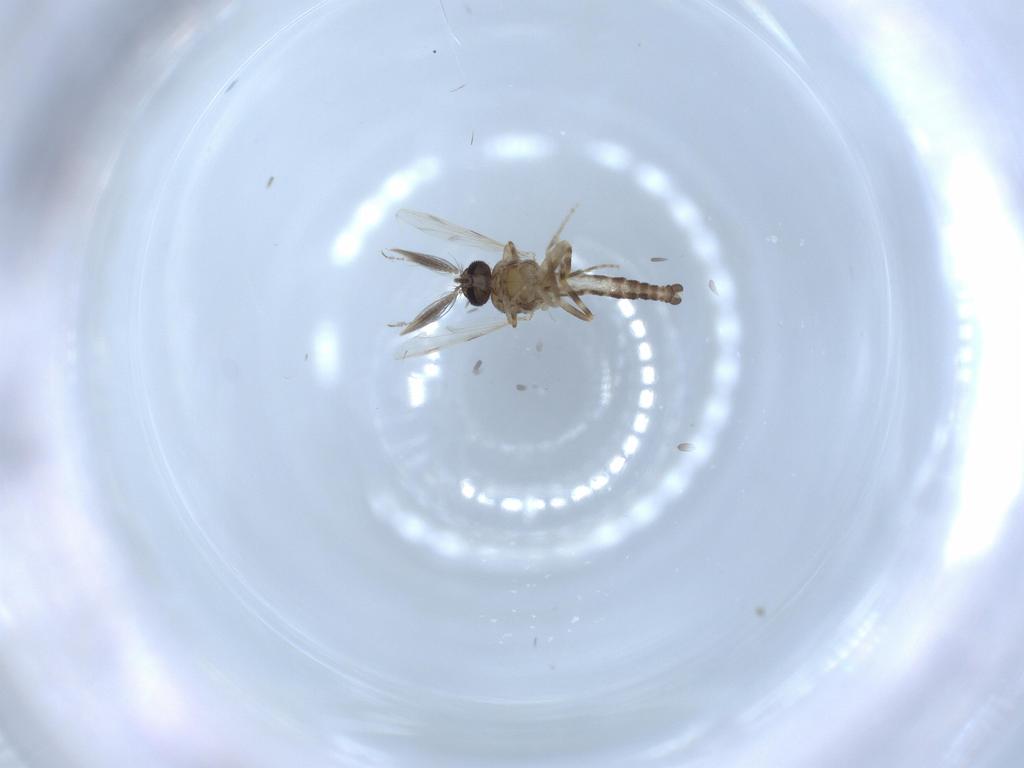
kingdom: Animalia
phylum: Arthropoda
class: Insecta
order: Diptera
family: Ceratopogonidae
